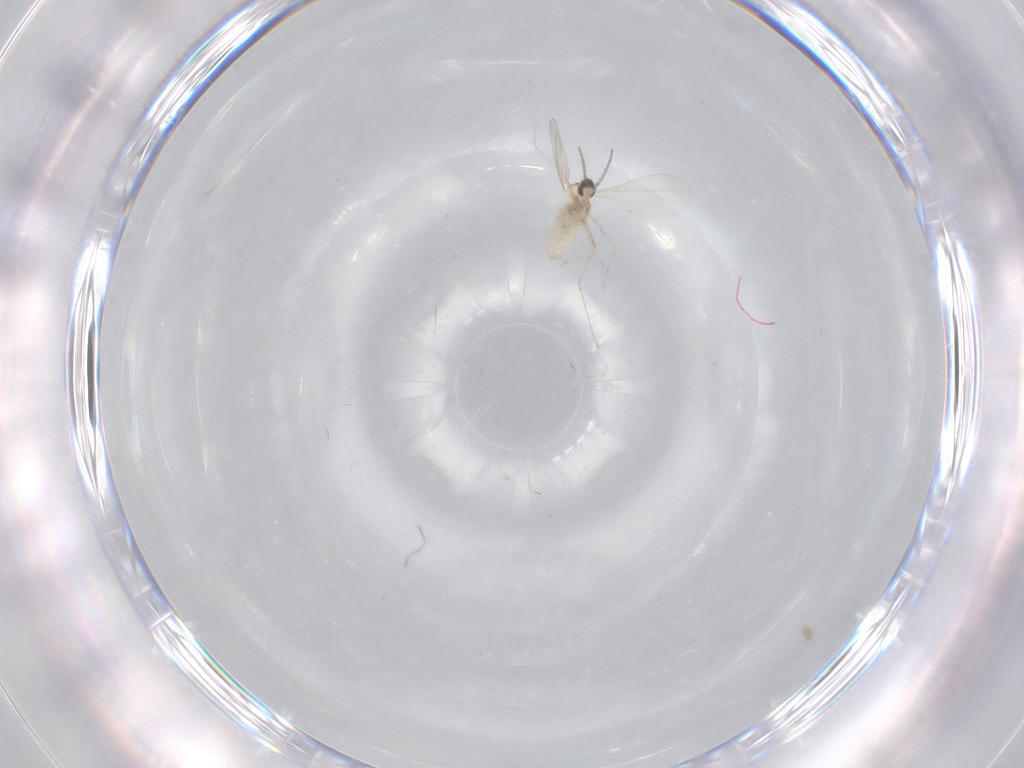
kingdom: Animalia
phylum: Arthropoda
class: Insecta
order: Diptera
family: Cecidomyiidae
